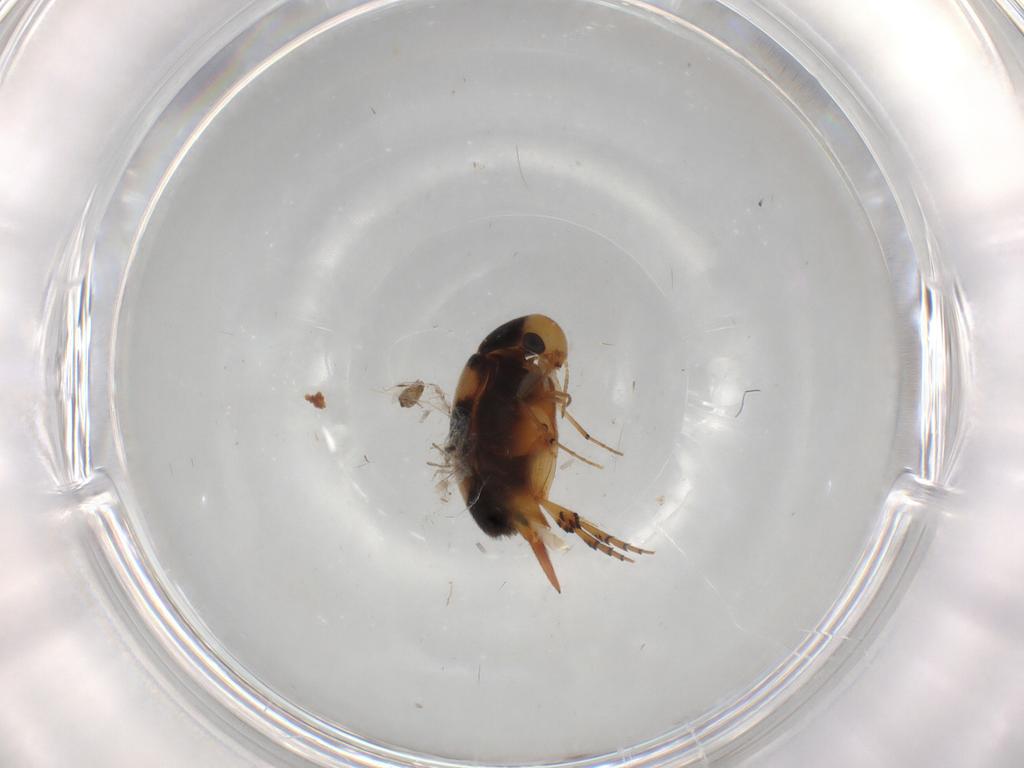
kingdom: Animalia
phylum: Arthropoda
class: Insecta
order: Coleoptera
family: Mordellidae
